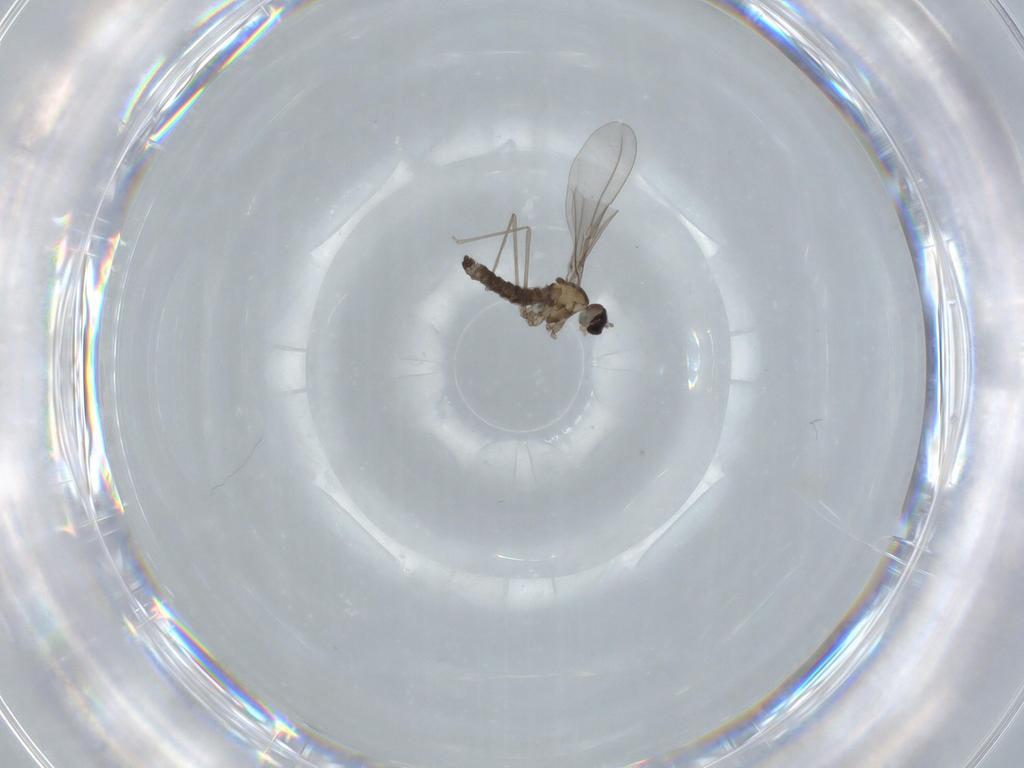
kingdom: Animalia
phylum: Arthropoda
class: Insecta
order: Diptera
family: Cecidomyiidae
